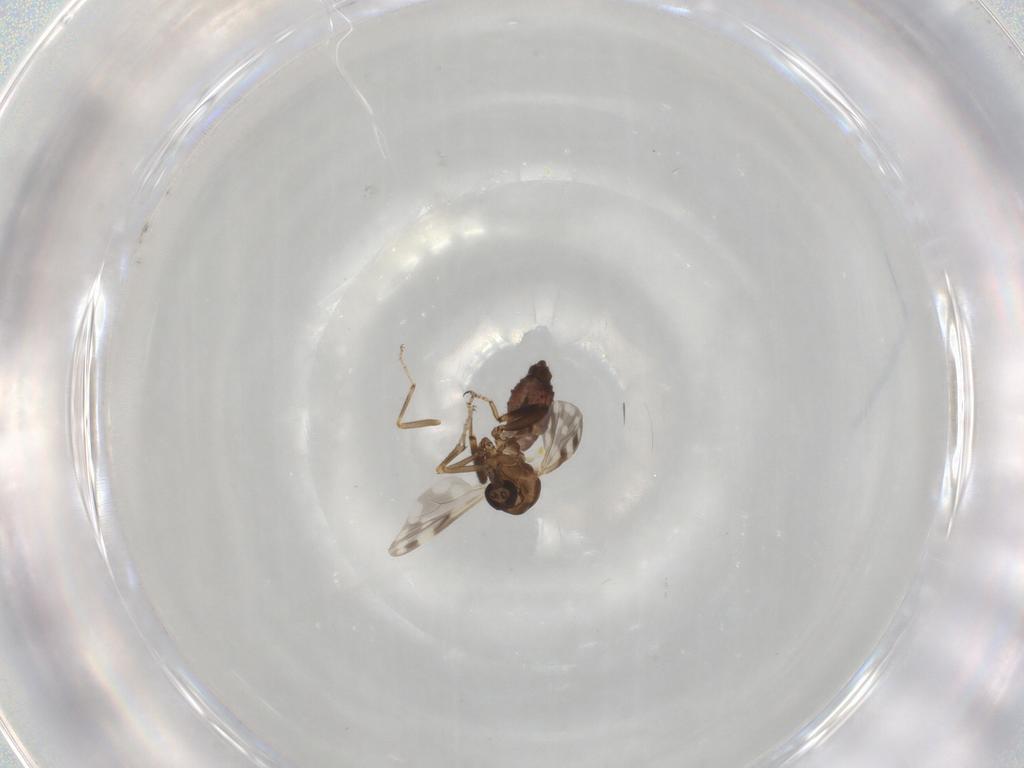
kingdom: Animalia
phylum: Arthropoda
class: Insecta
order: Diptera
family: Ceratopogonidae
